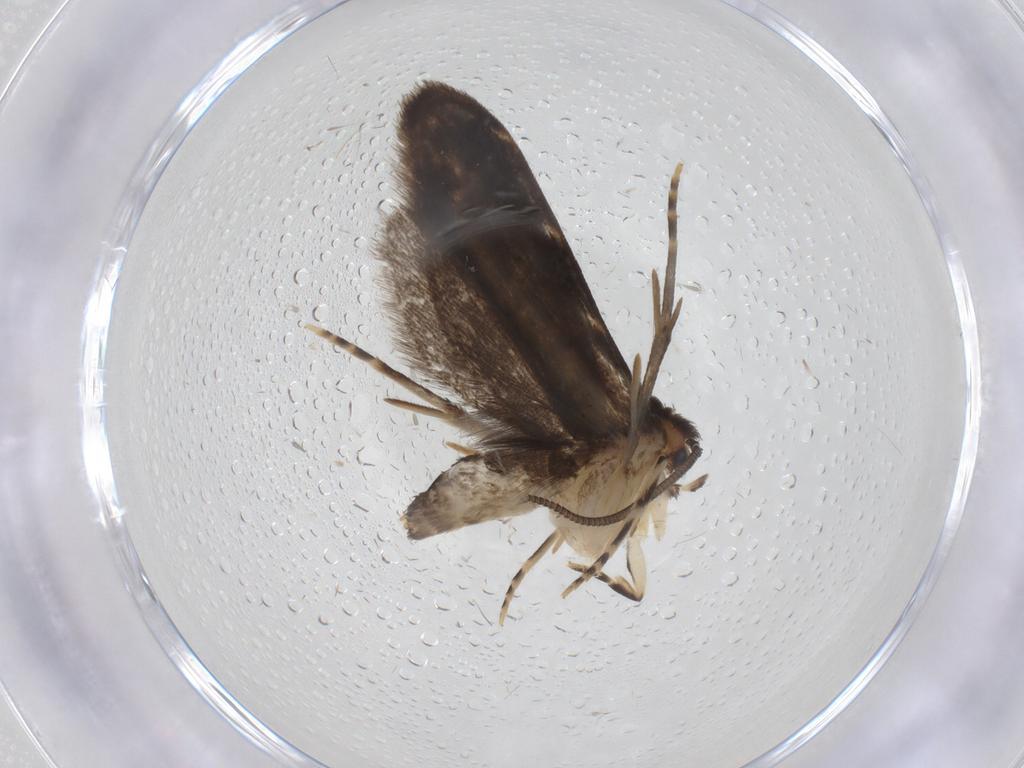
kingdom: Animalia
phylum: Arthropoda
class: Insecta
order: Lepidoptera
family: Dryadaulidae
